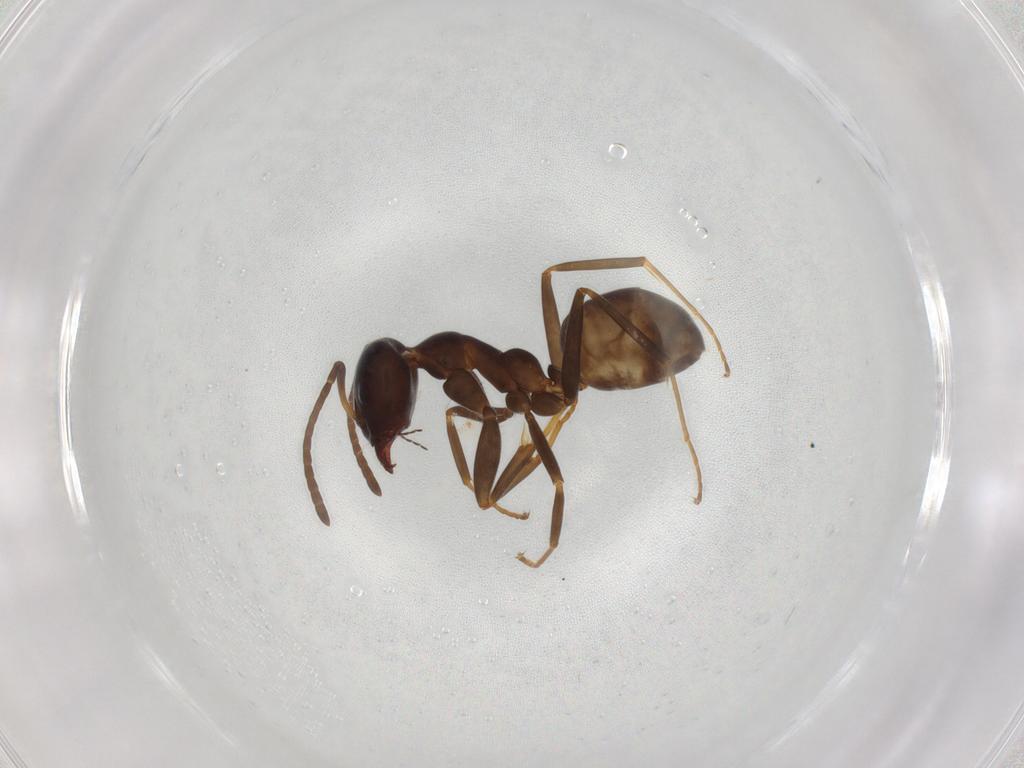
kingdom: Animalia
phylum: Arthropoda
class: Insecta
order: Hymenoptera
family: Formicidae
